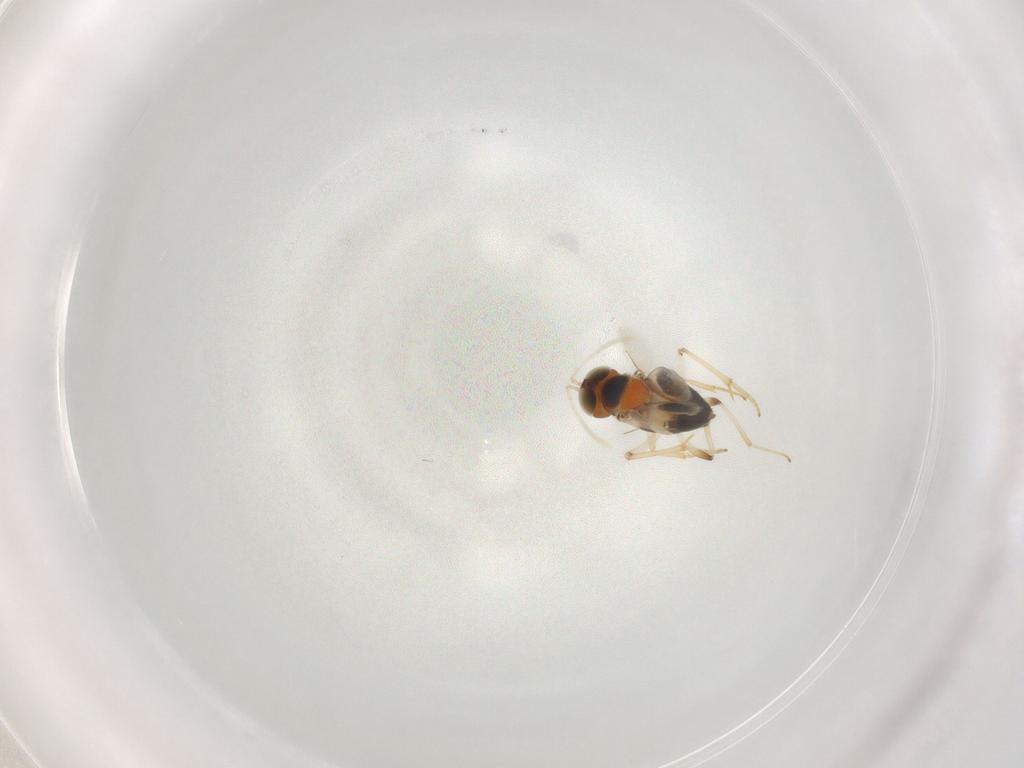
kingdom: Animalia
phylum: Arthropoda
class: Insecta
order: Hymenoptera
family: Encyrtidae
